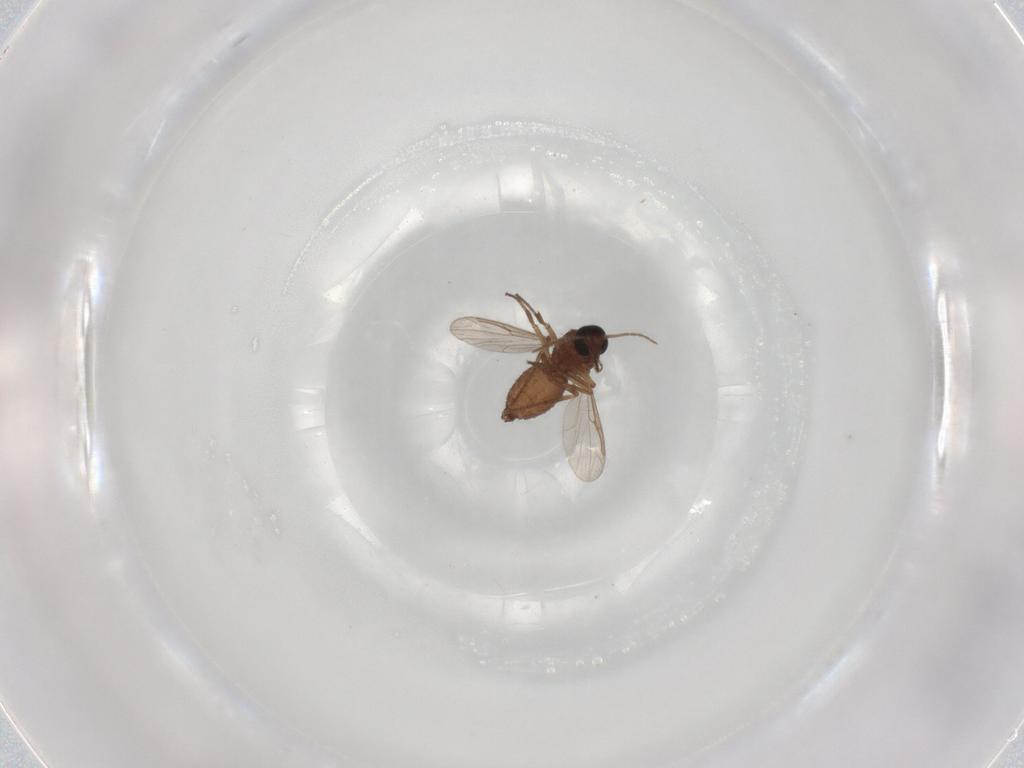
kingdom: Animalia
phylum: Arthropoda
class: Insecta
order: Diptera
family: Ceratopogonidae
